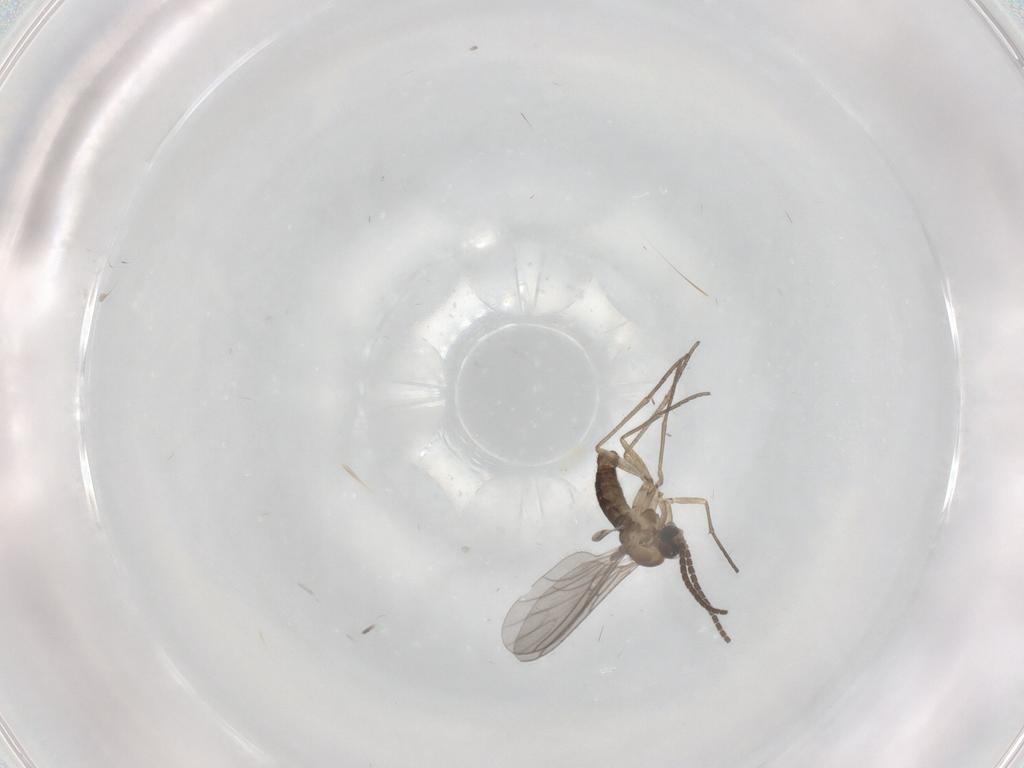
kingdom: Animalia
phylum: Arthropoda
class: Insecta
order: Diptera
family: Sciaridae
